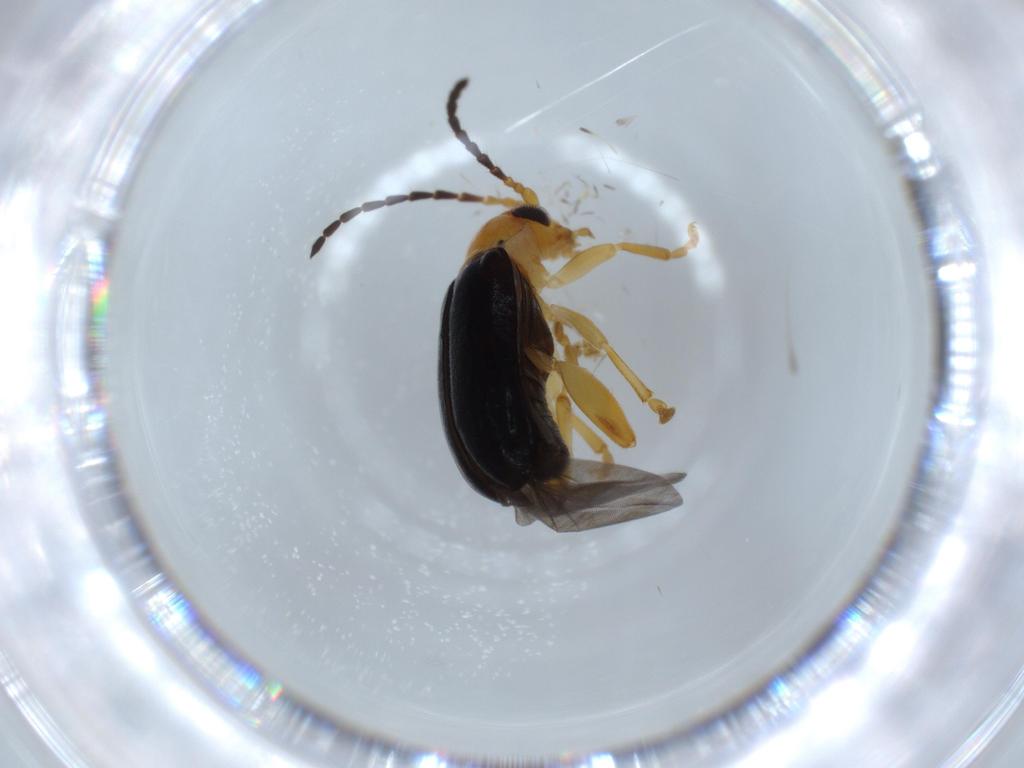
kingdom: Animalia
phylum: Arthropoda
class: Insecta
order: Coleoptera
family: Chrysomelidae
